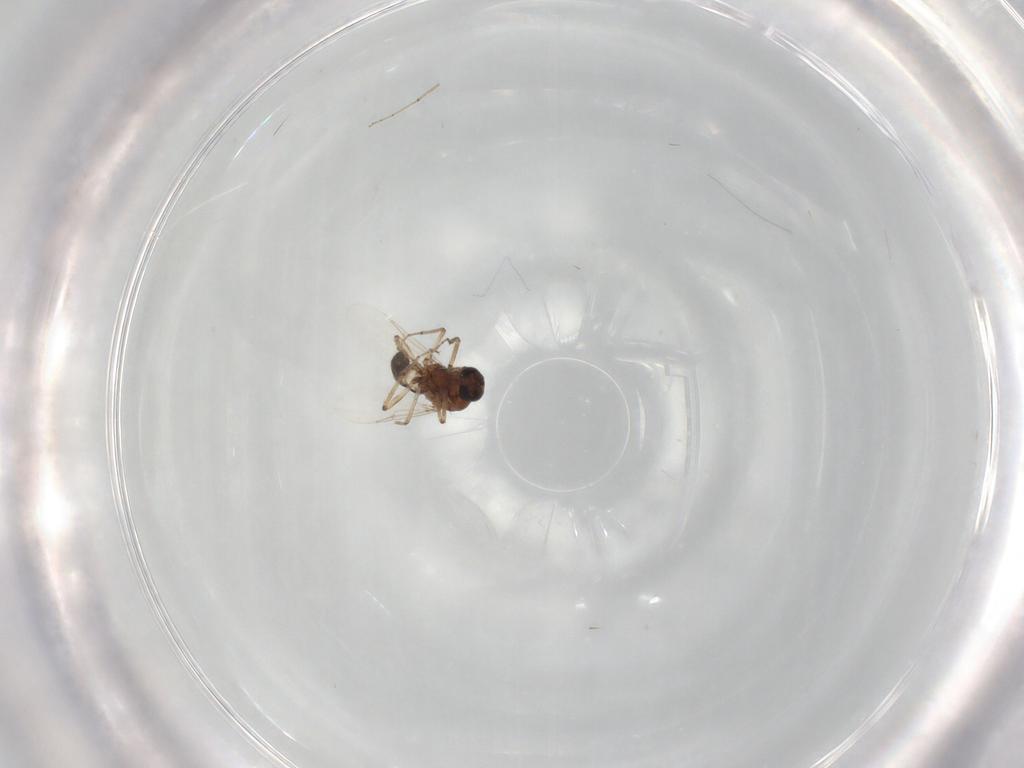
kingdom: Animalia
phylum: Arthropoda
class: Insecta
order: Diptera
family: Ceratopogonidae
